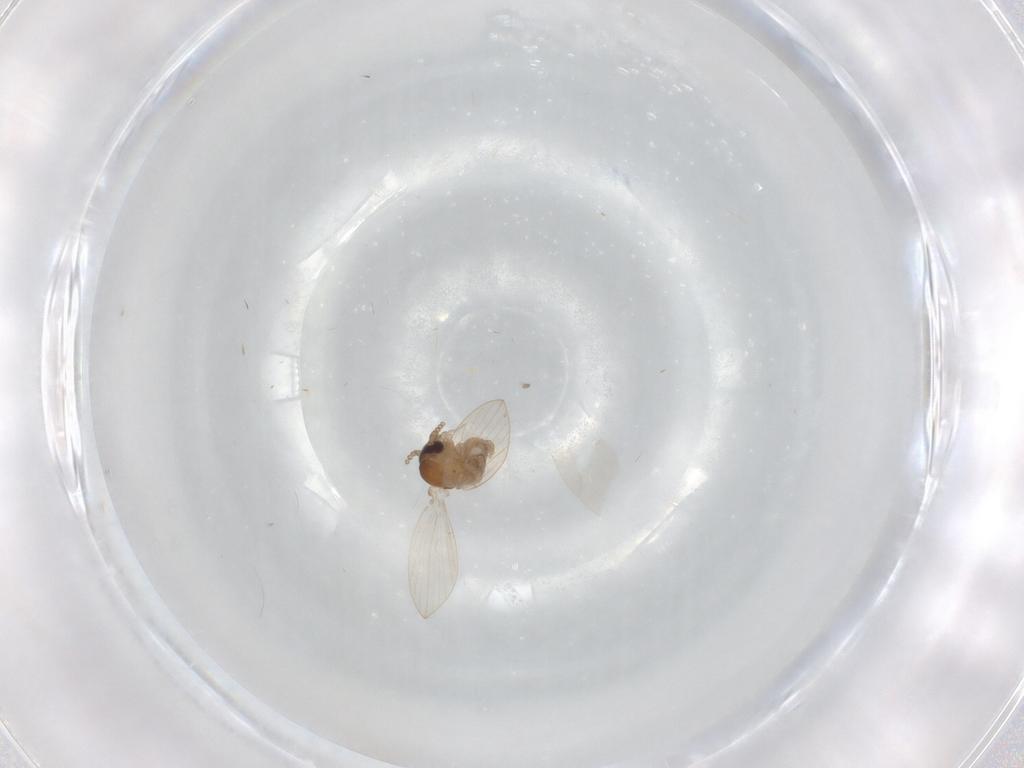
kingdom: Animalia
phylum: Arthropoda
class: Insecta
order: Diptera
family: Psychodidae
